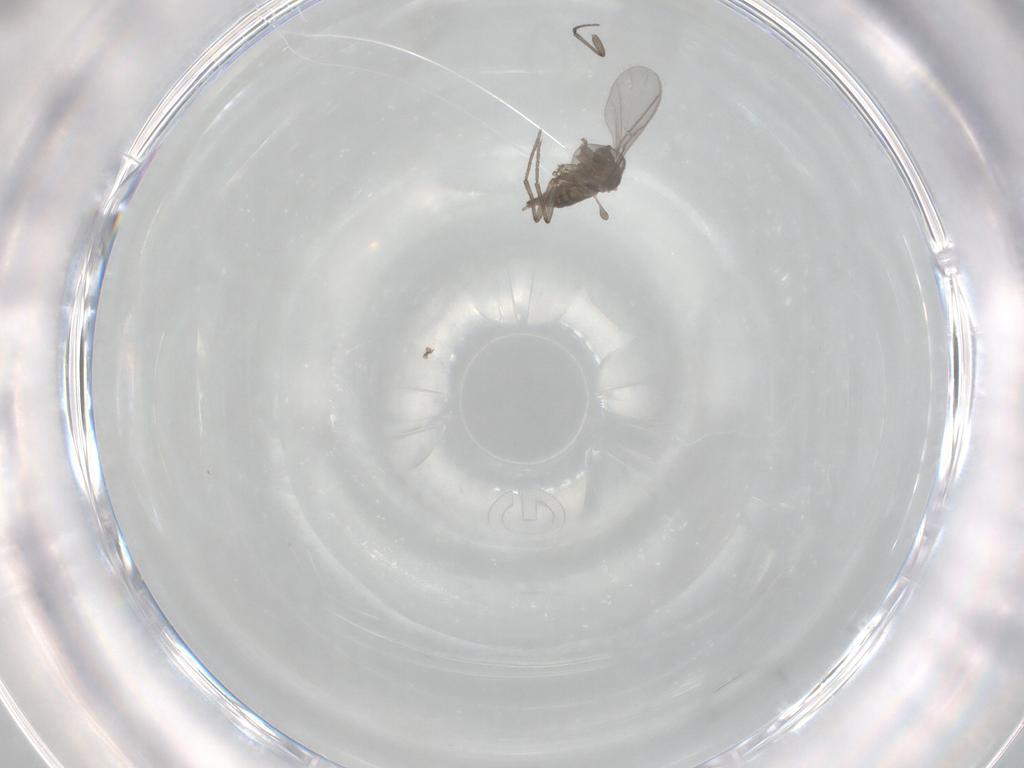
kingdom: Animalia
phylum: Arthropoda
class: Insecta
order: Diptera
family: Sciaridae
